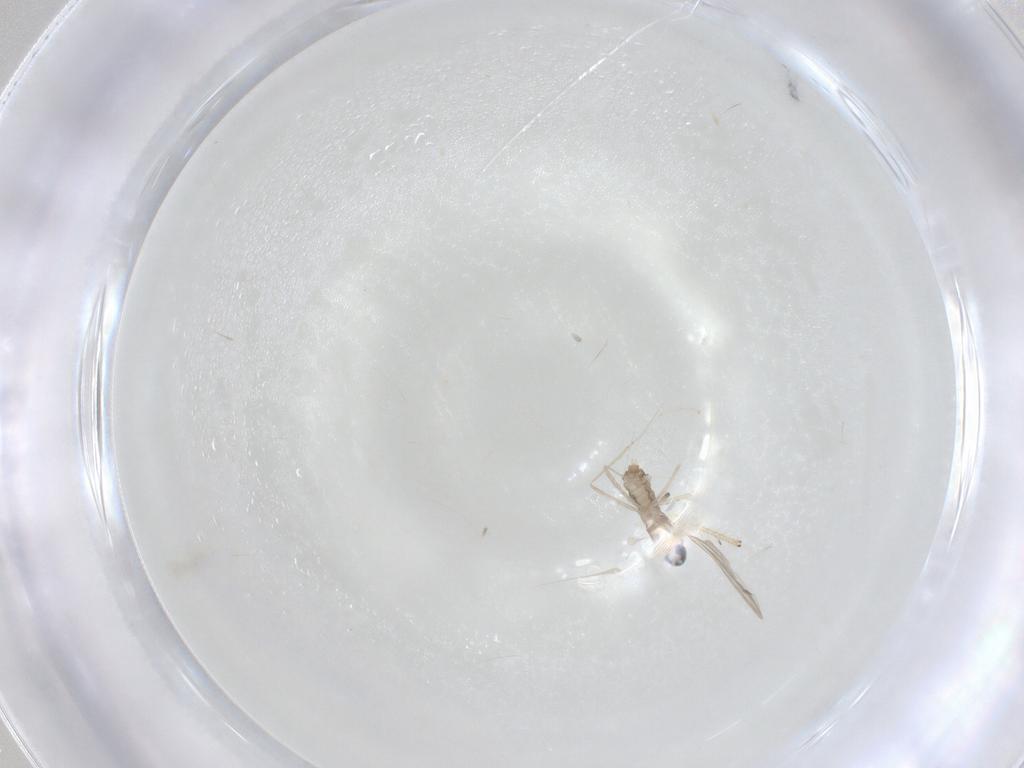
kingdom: Animalia
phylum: Arthropoda
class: Insecta
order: Diptera
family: Cecidomyiidae
